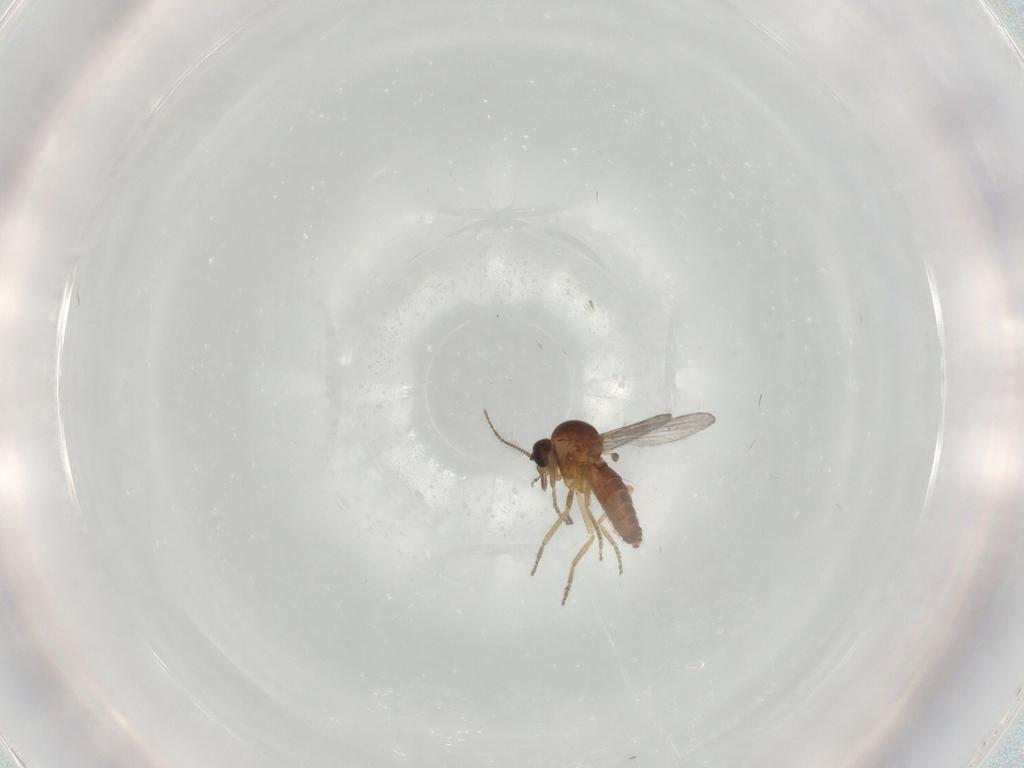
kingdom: Animalia
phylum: Arthropoda
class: Insecta
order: Diptera
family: Ceratopogonidae
